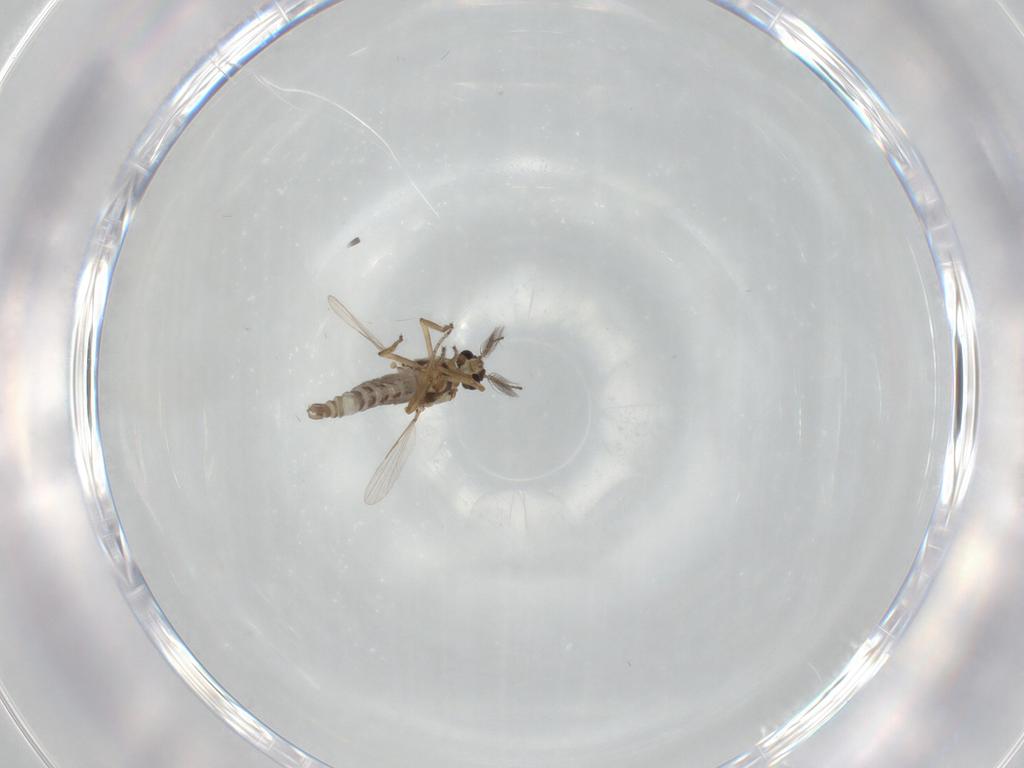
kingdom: Animalia
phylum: Arthropoda
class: Insecta
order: Diptera
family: Ceratopogonidae
